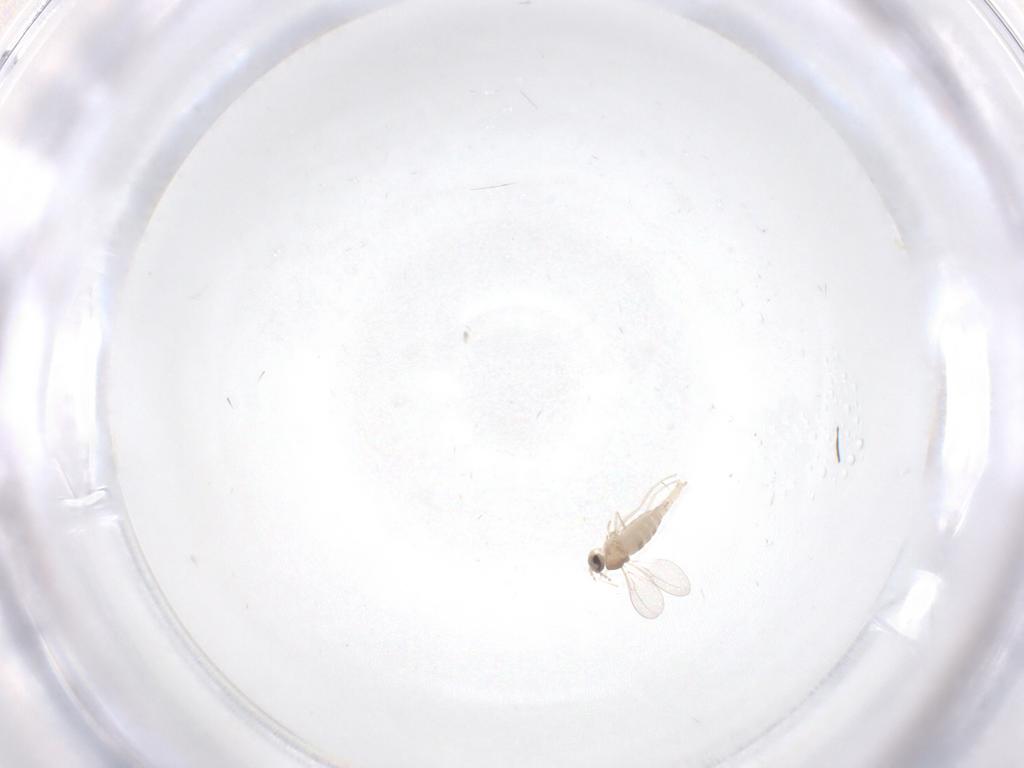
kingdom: Animalia
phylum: Arthropoda
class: Insecta
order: Diptera
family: Cecidomyiidae
